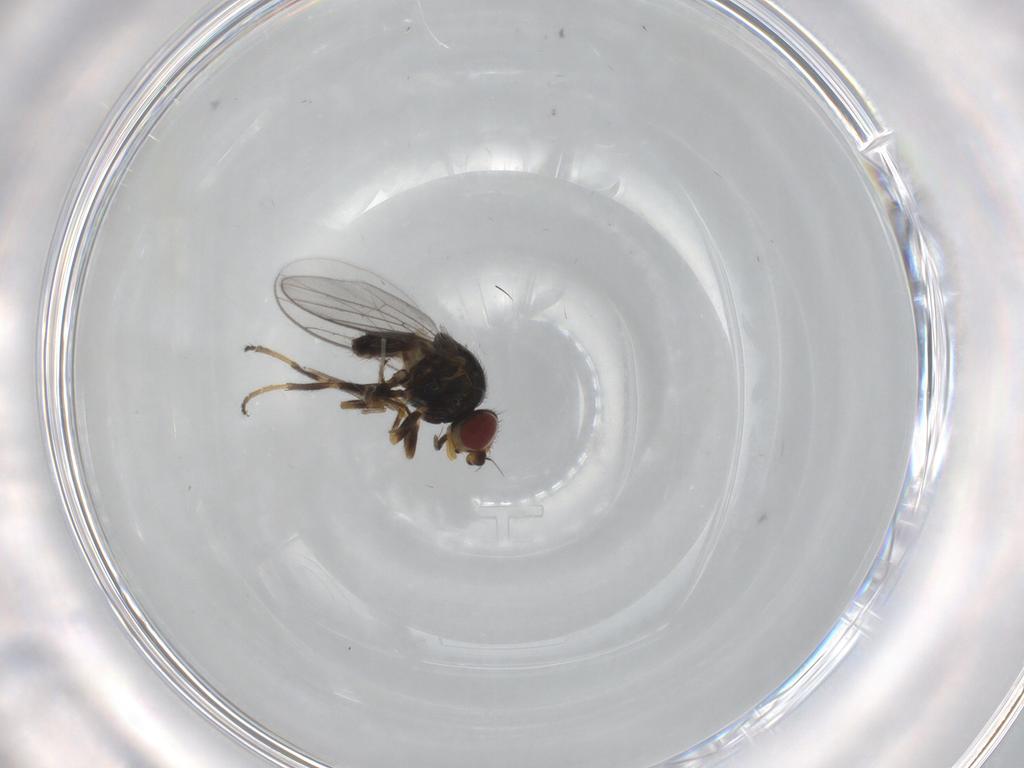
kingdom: Animalia
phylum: Arthropoda
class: Insecta
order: Diptera
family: Chloropidae
